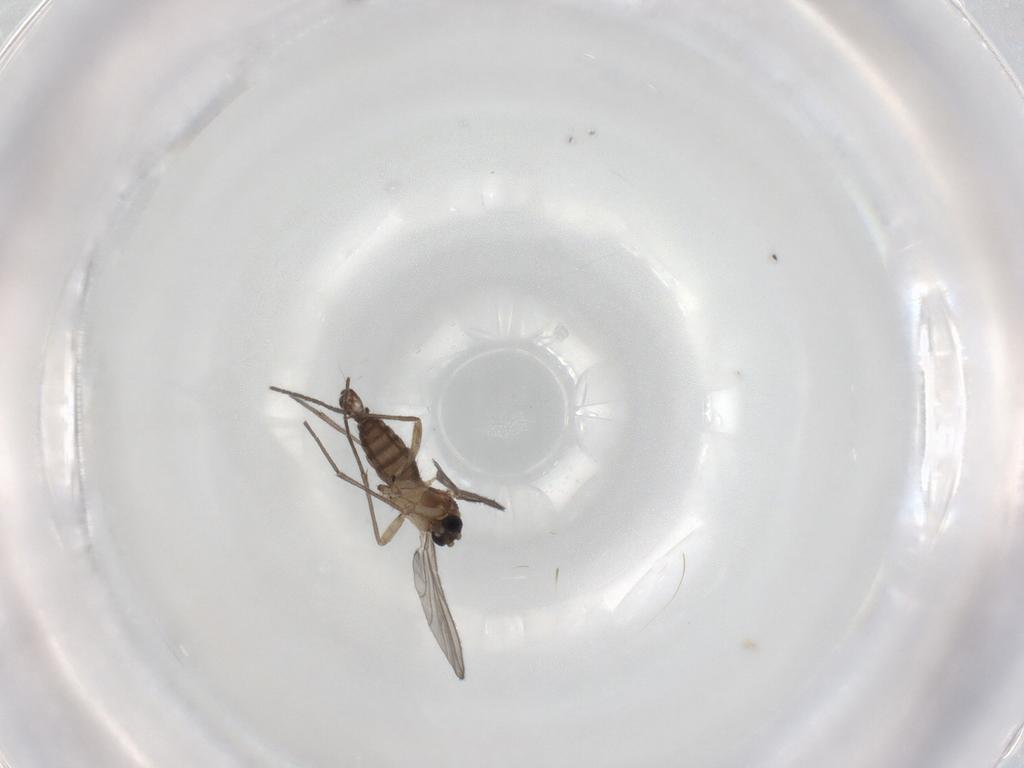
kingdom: Animalia
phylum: Arthropoda
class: Insecta
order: Diptera
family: Sciaridae
